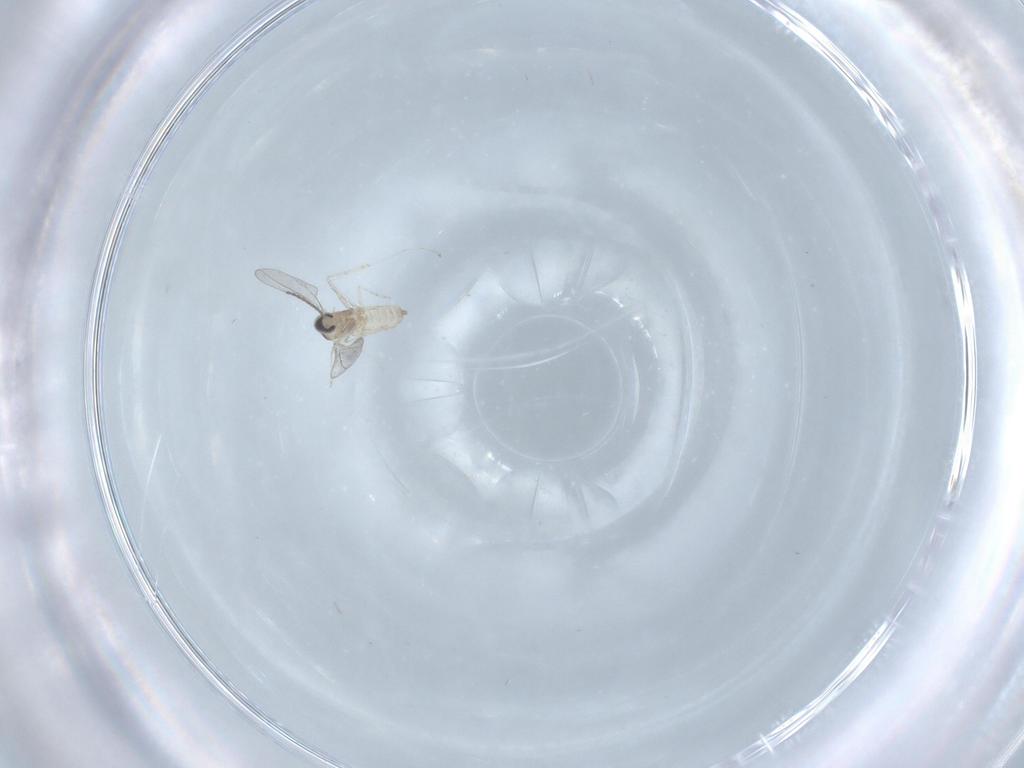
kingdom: Animalia
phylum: Arthropoda
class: Insecta
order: Diptera
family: Cecidomyiidae
